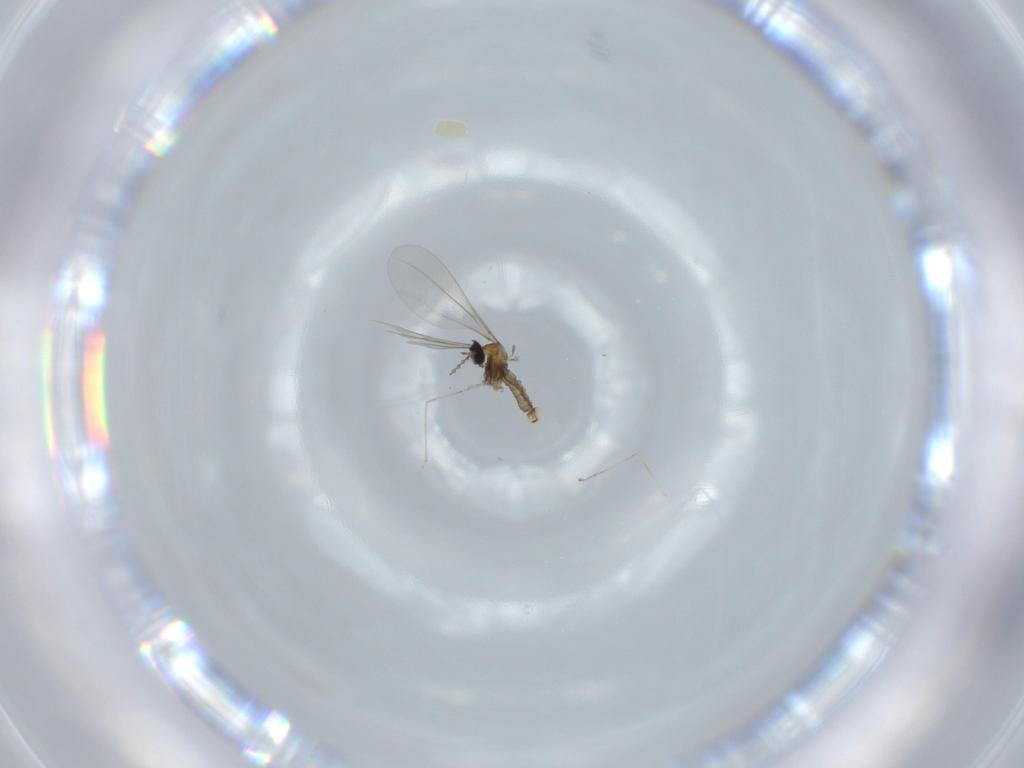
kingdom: Animalia
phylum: Arthropoda
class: Insecta
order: Diptera
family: Cecidomyiidae
